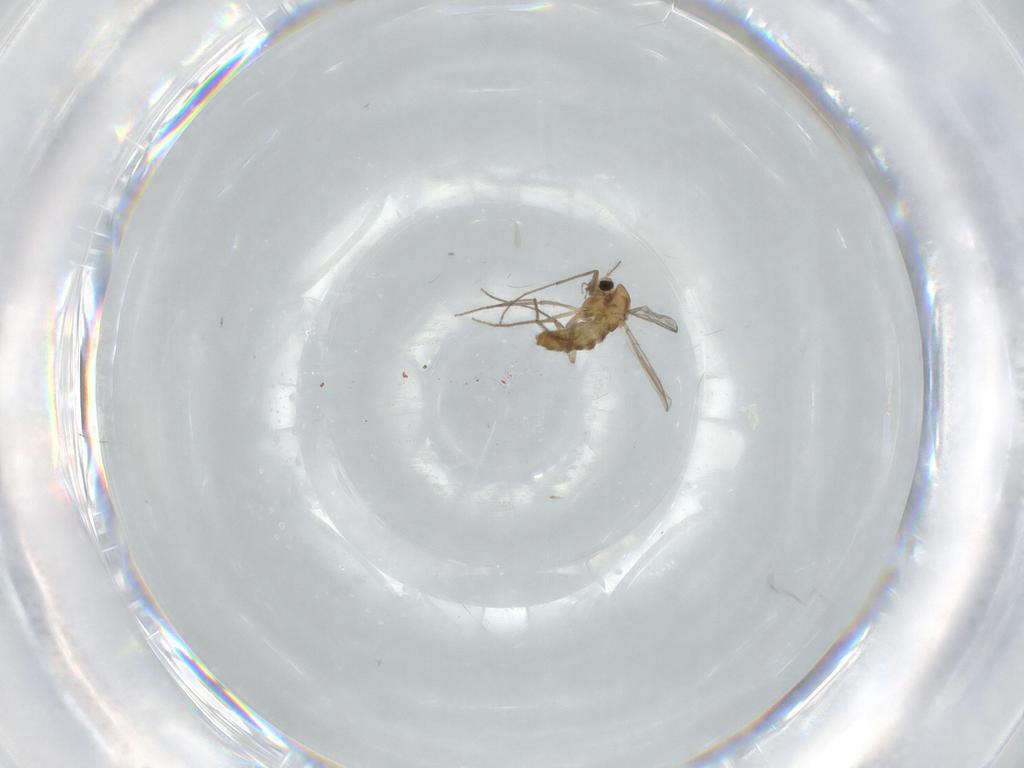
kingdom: Animalia
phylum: Arthropoda
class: Insecta
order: Diptera
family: Chironomidae
